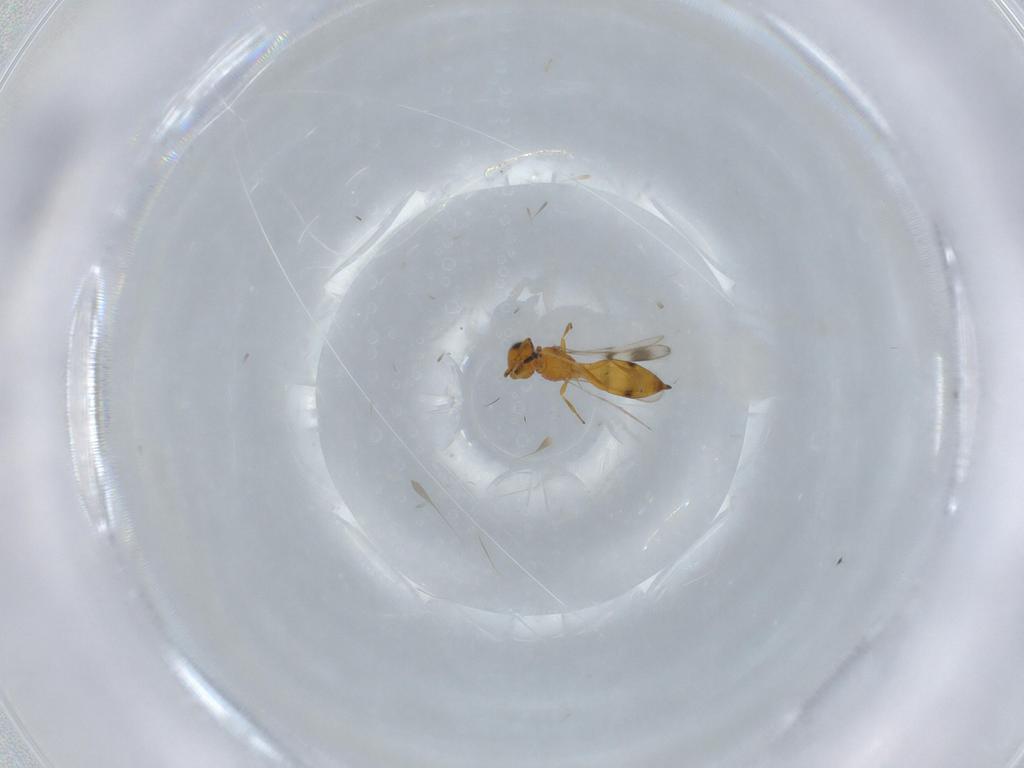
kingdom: Animalia
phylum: Arthropoda
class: Insecta
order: Hymenoptera
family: Scelionidae
